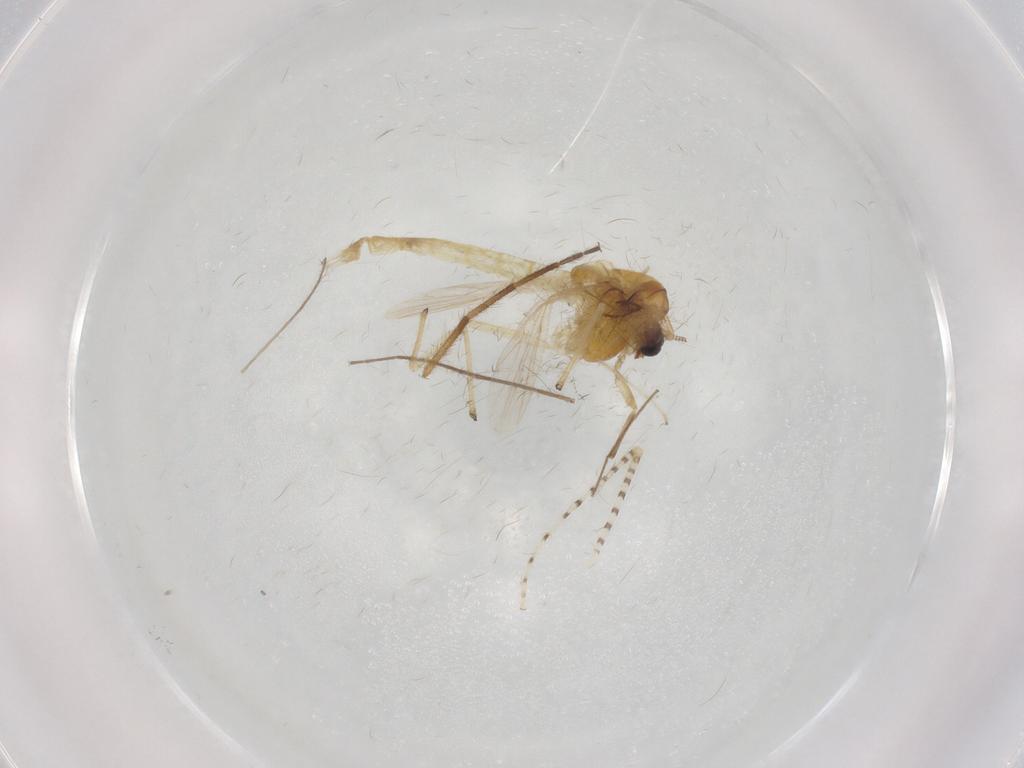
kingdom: Animalia
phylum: Arthropoda
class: Insecta
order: Diptera
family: Chironomidae
